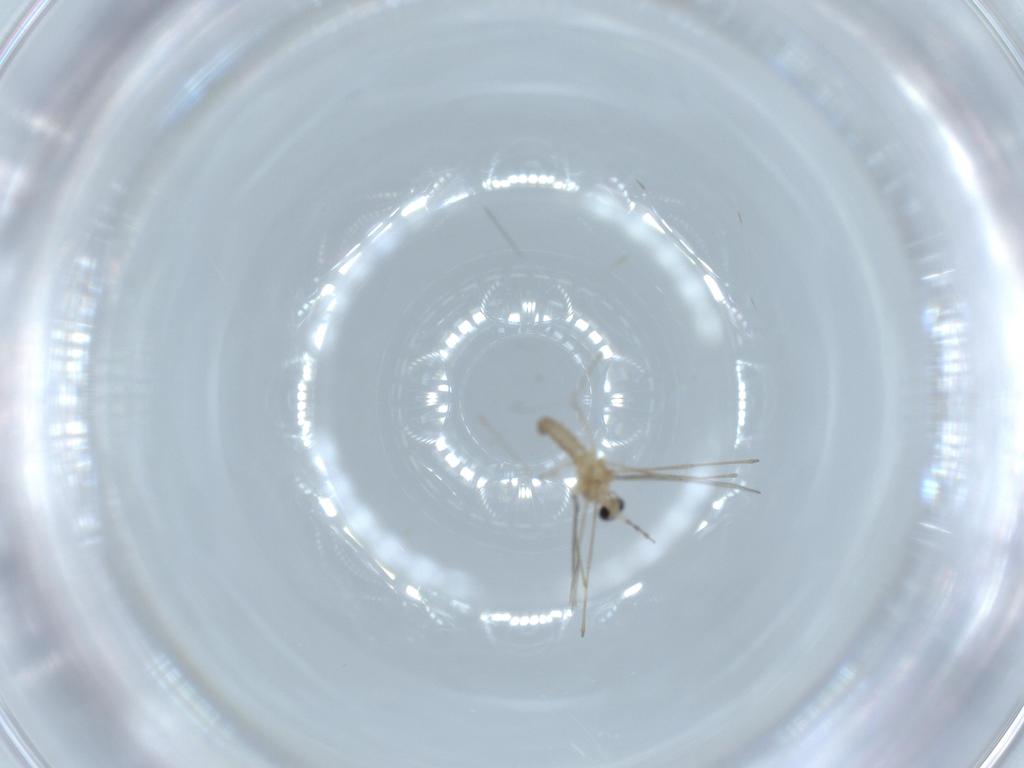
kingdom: Animalia
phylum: Arthropoda
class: Insecta
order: Diptera
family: Cecidomyiidae
